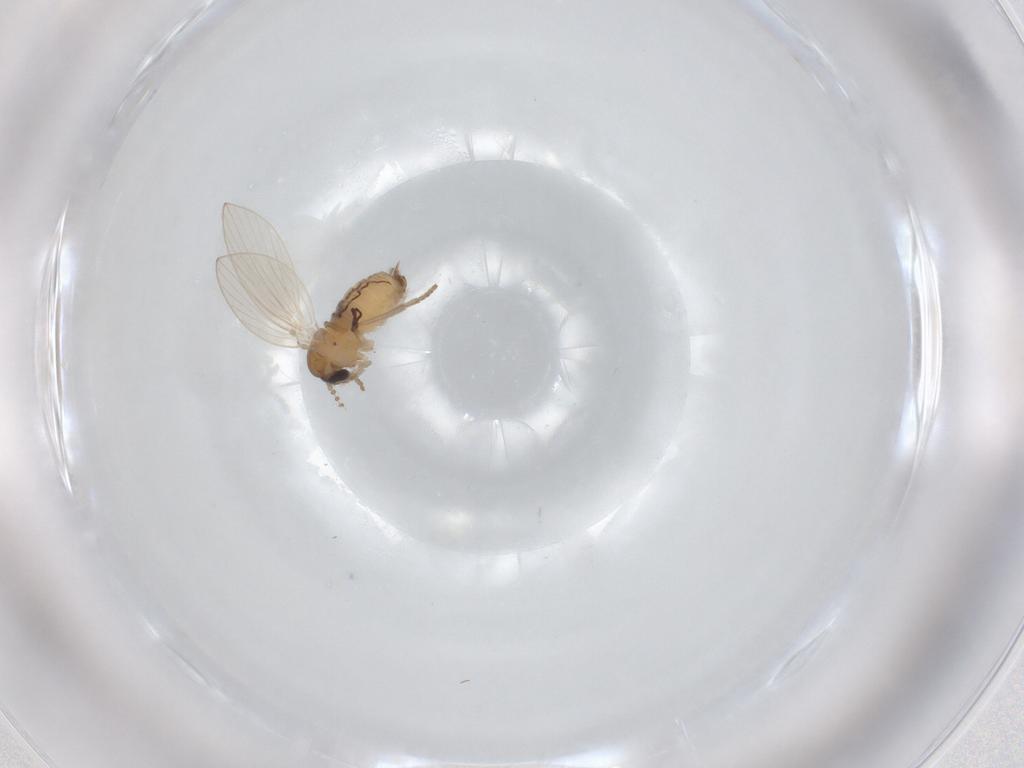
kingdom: Animalia
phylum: Arthropoda
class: Insecta
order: Diptera
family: Psychodidae
